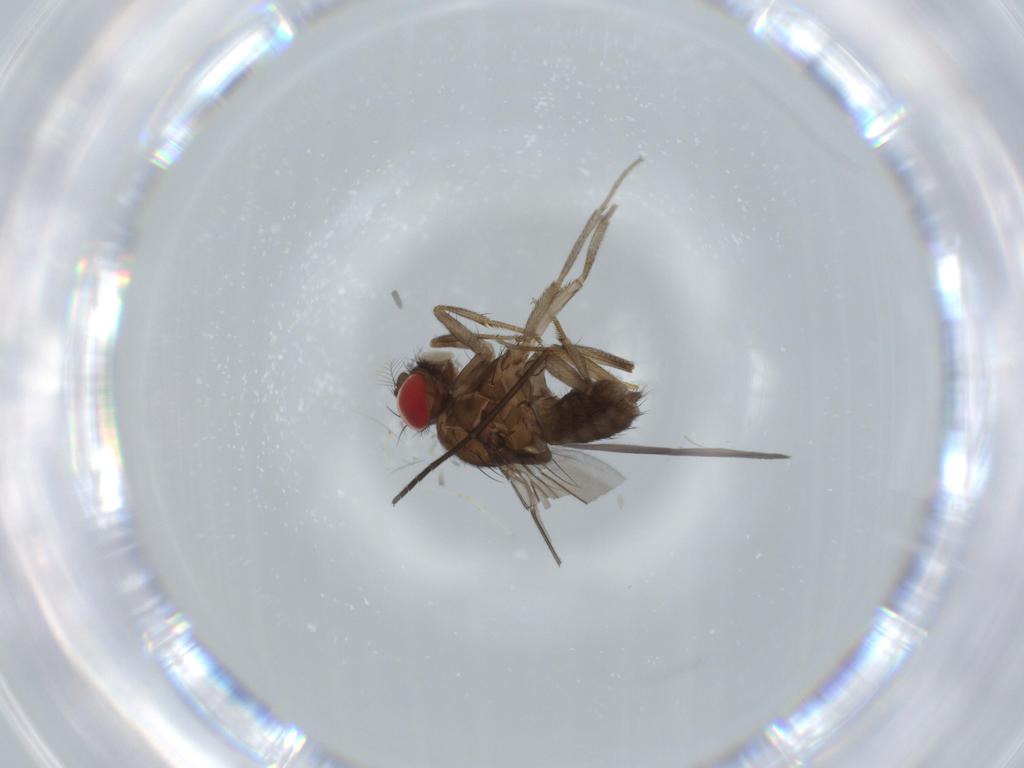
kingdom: Animalia
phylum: Arthropoda
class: Insecta
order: Diptera
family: Drosophilidae
